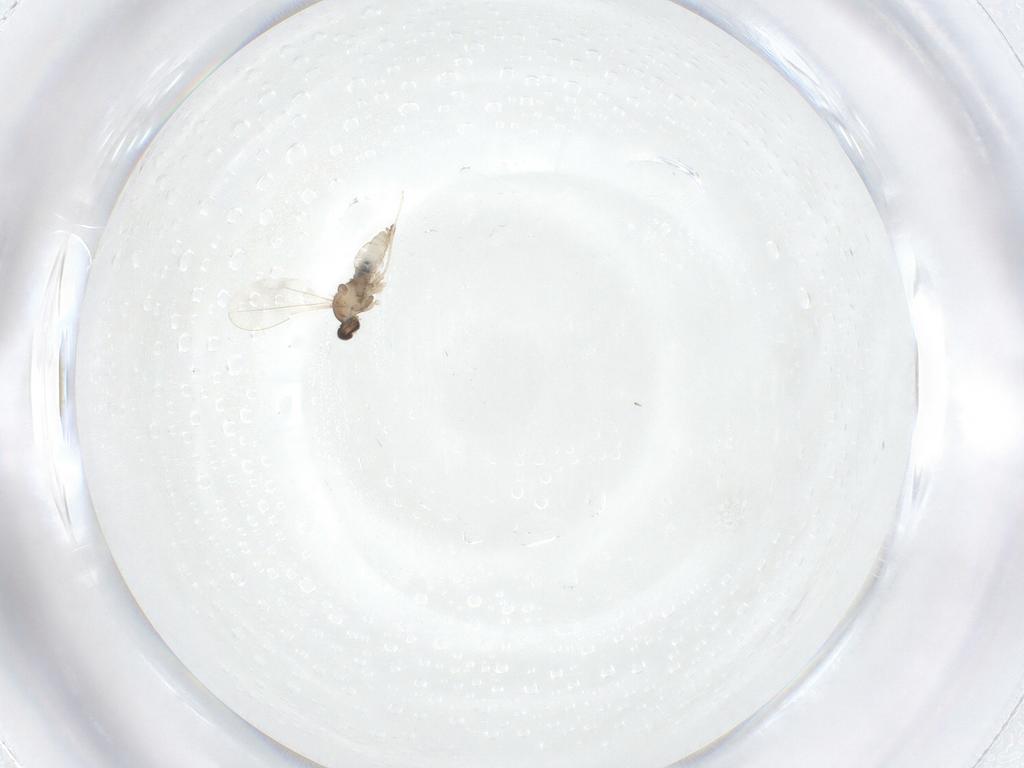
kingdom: Animalia
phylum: Arthropoda
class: Insecta
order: Diptera
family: Cecidomyiidae
